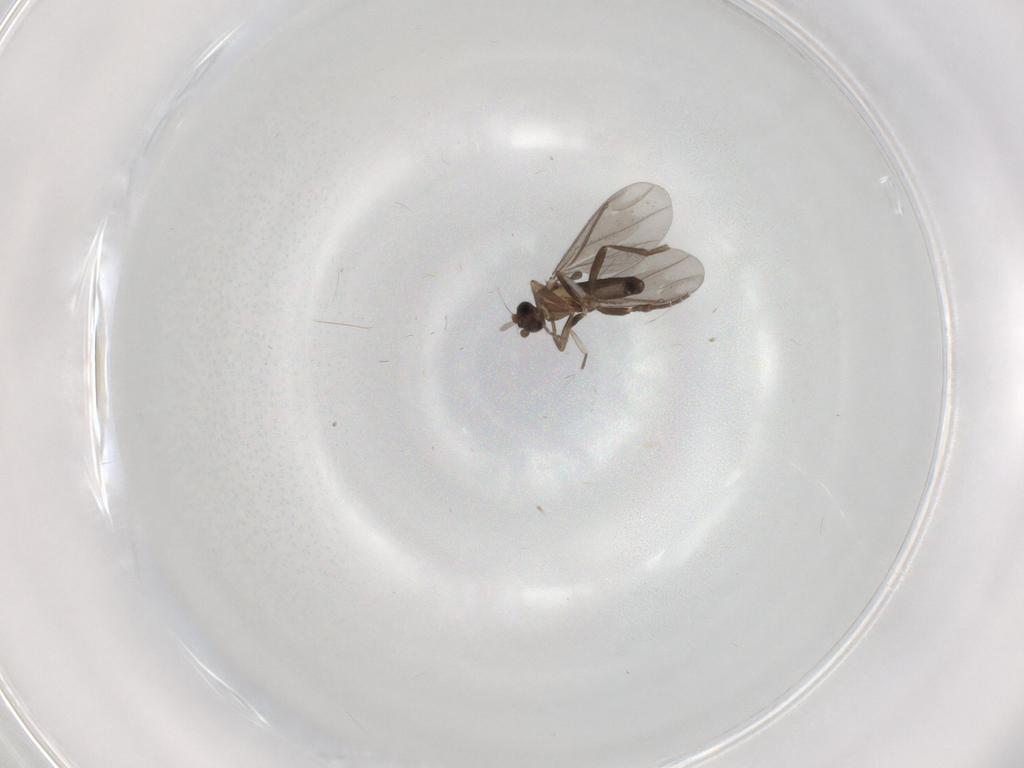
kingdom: Animalia
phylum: Arthropoda
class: Insecta
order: Diptera
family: Phoridae
